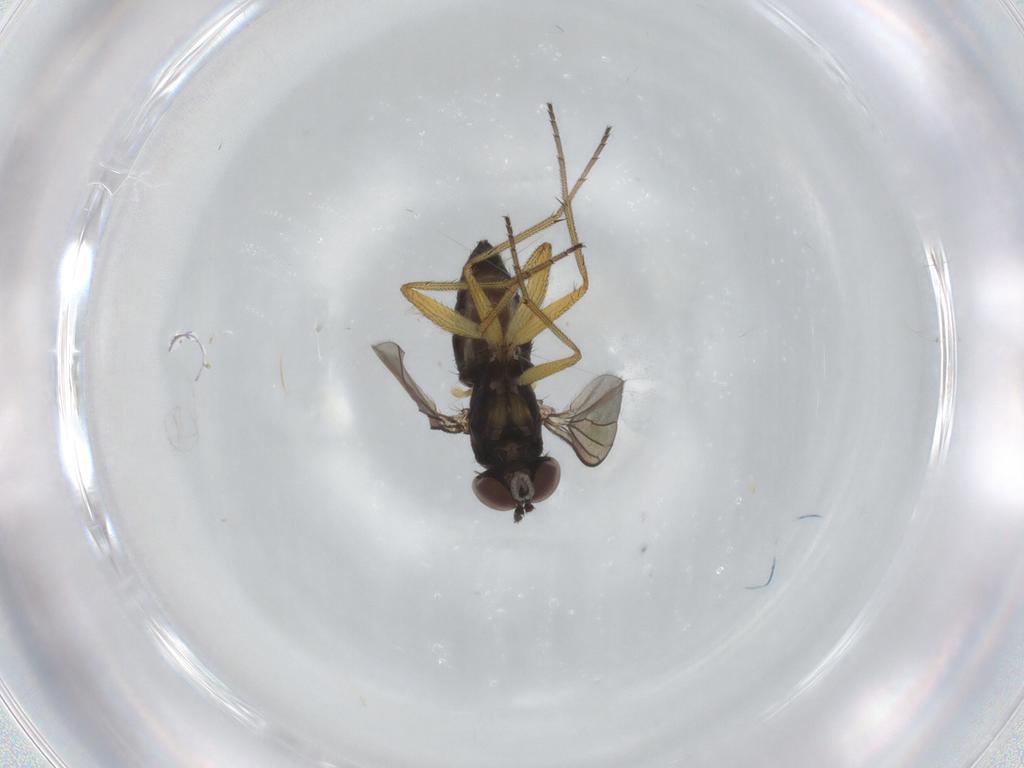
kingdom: Animalia
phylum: Arthropoda
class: Insecta
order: Diptera
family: Dolichopodidae
